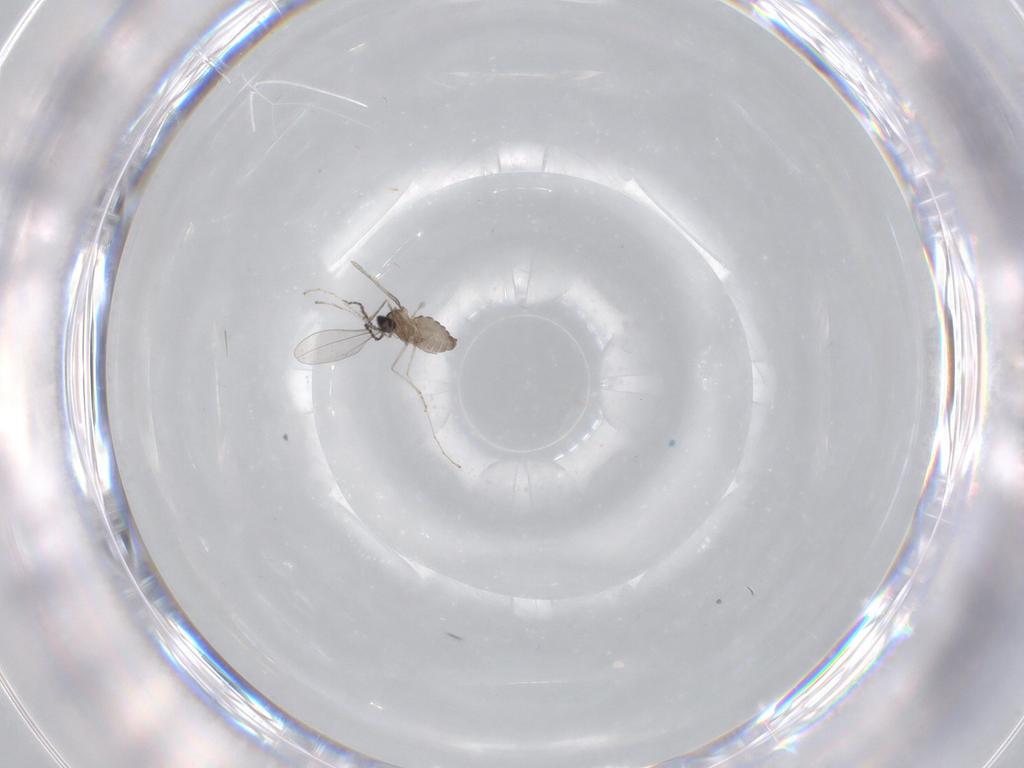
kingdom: Animalia
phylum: Arthropoda
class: Insecta
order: Diptera
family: Cecidomyiidae
